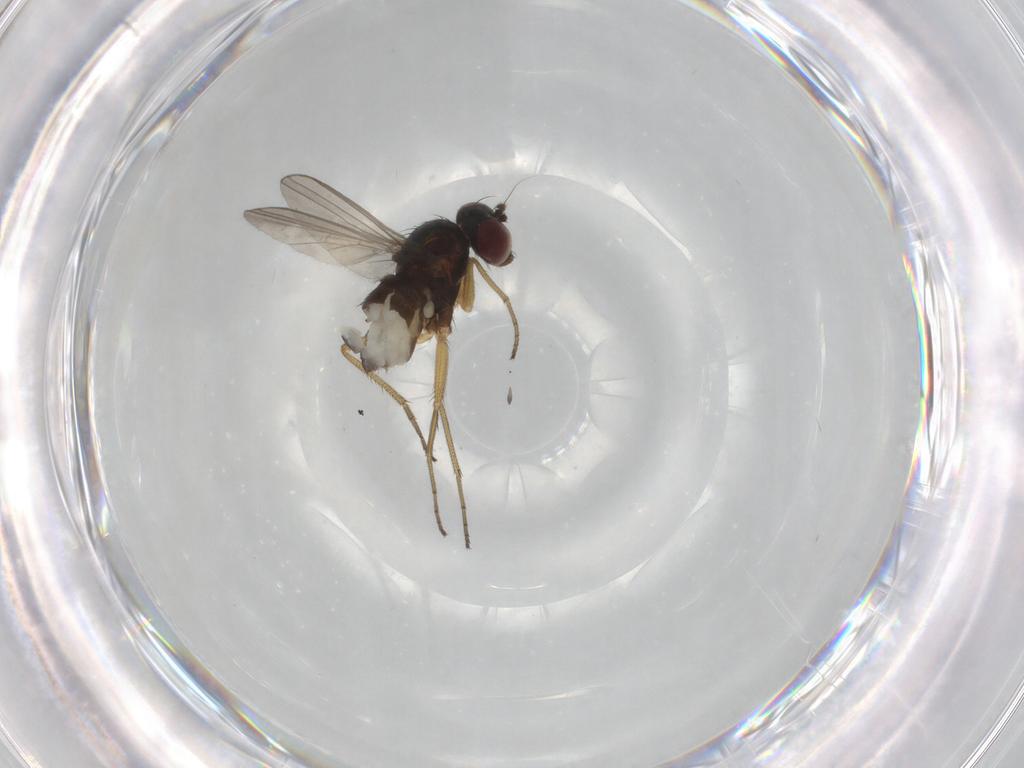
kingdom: Animalia
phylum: Arthropoda
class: Insecta
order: Diptera
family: Dolichopodidae
